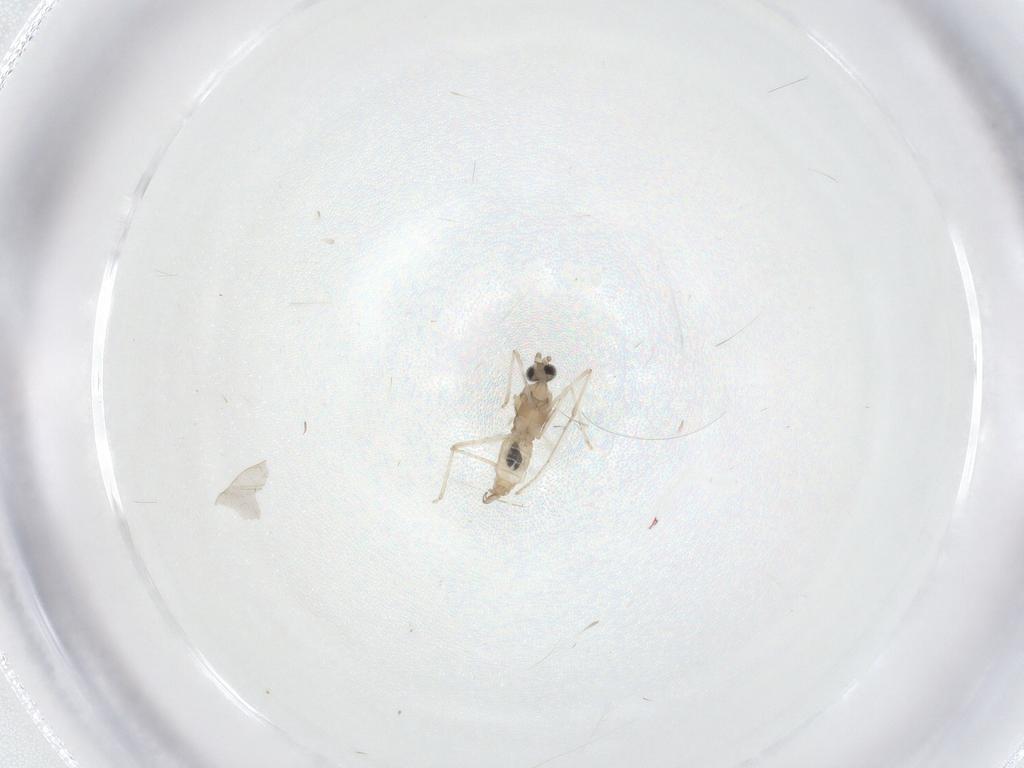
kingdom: Animalia
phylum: Arthropoda
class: Insecta
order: Diptera
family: Cecidomyiidae
